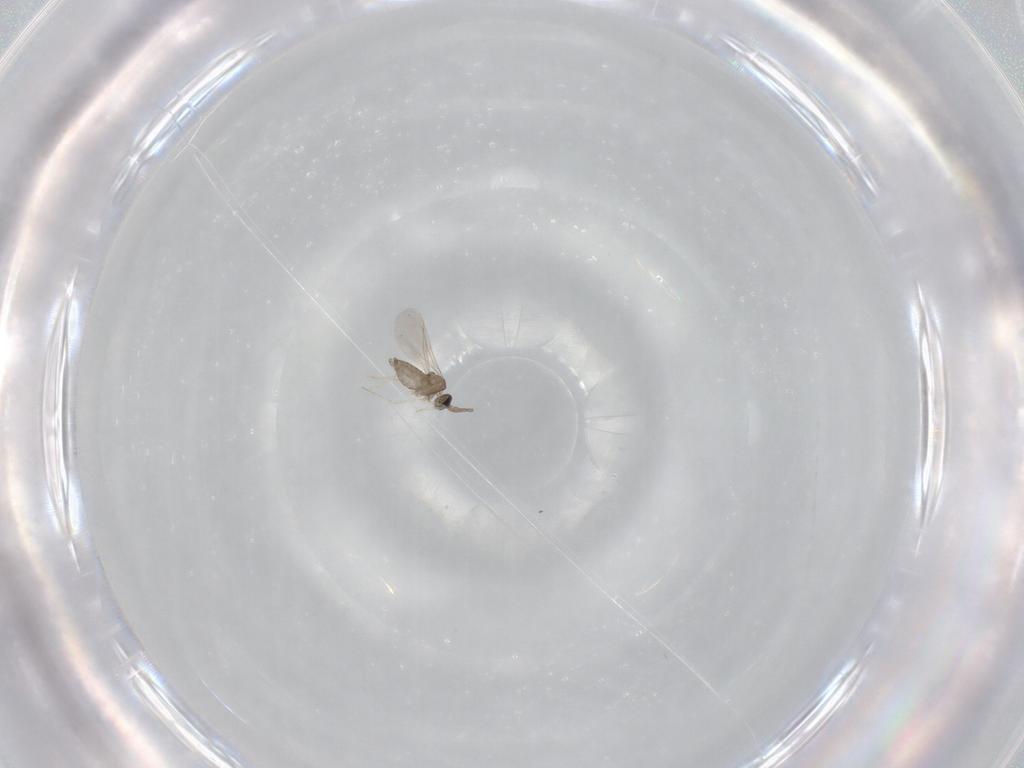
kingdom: Animalia
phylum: Arthropoda
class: Insecta
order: Diptera
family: Cecidomyiidae
